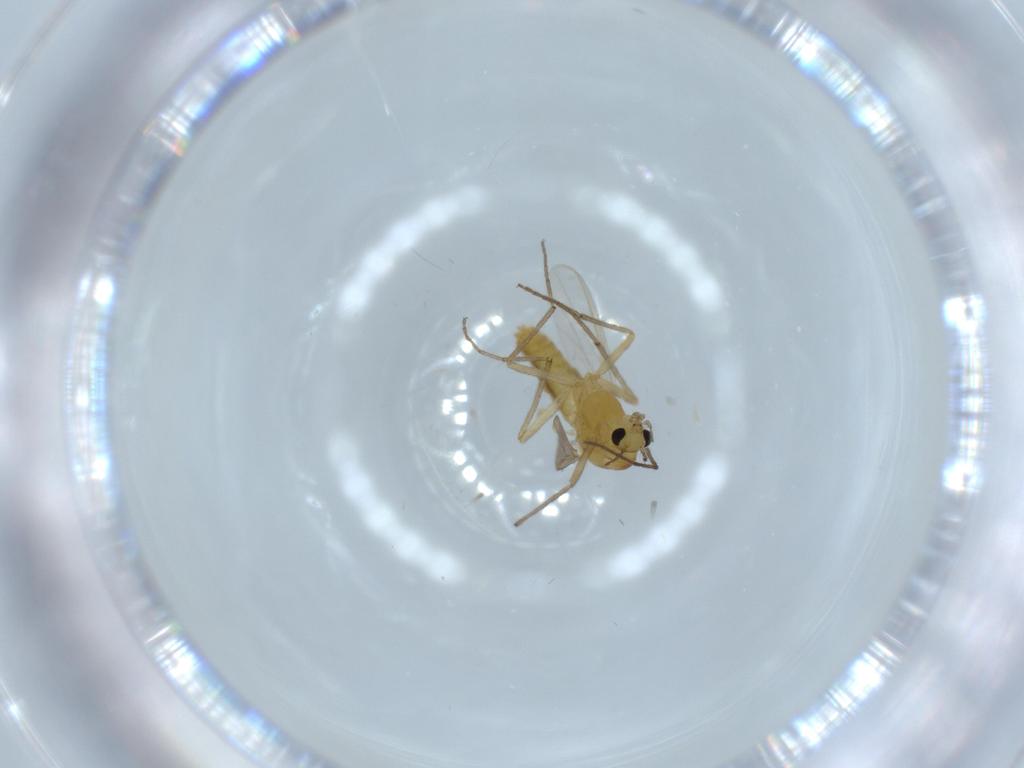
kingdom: Animalia
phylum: Arthropoda
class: Insecta
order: Diptera
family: Chironomidae
